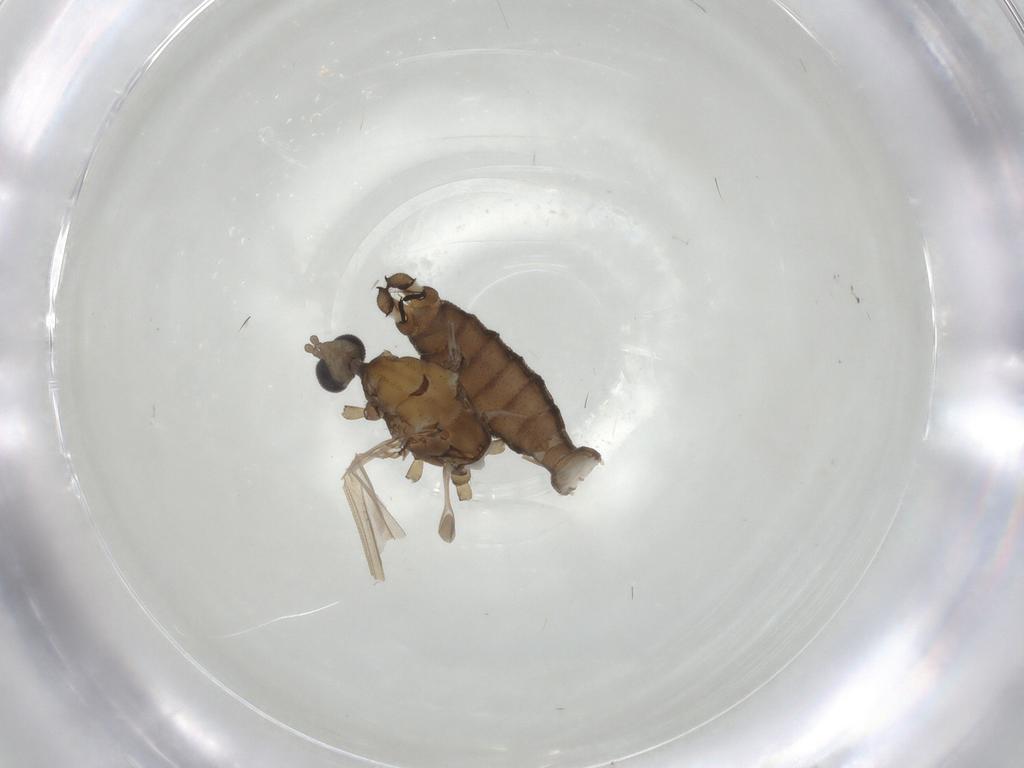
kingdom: Animalia
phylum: Arthropoda
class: Insecta
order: Diptera
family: Limoniidae
